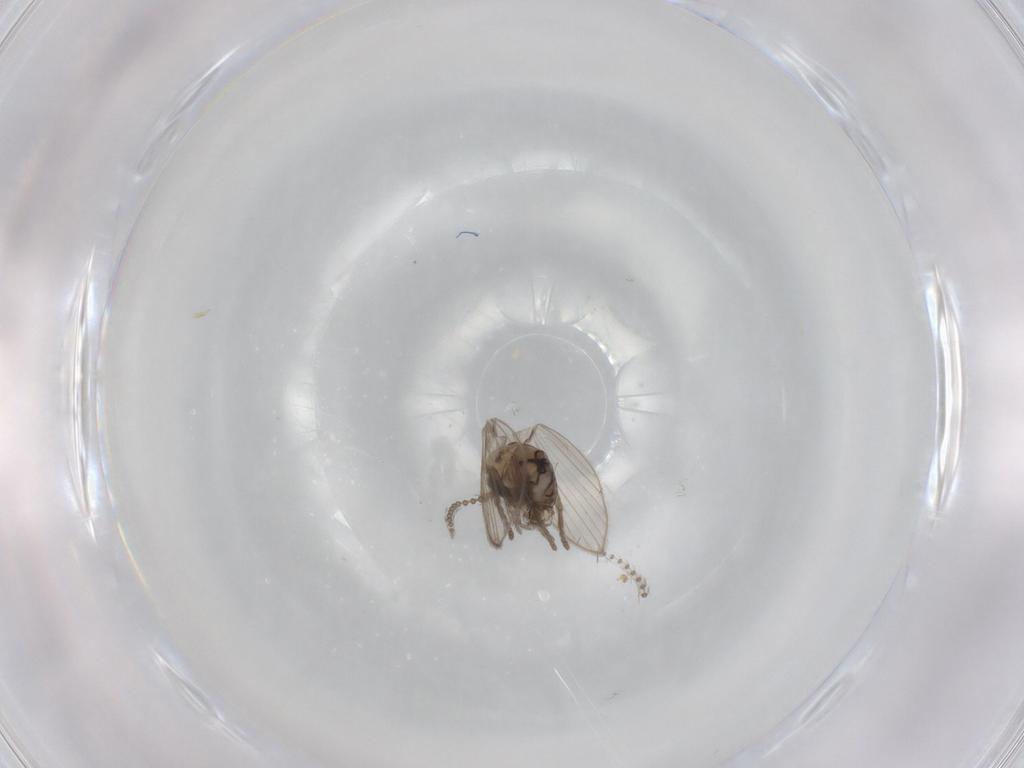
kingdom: Animalia
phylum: Arthropoda
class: Insecta
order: Diptera
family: Psychodidae
